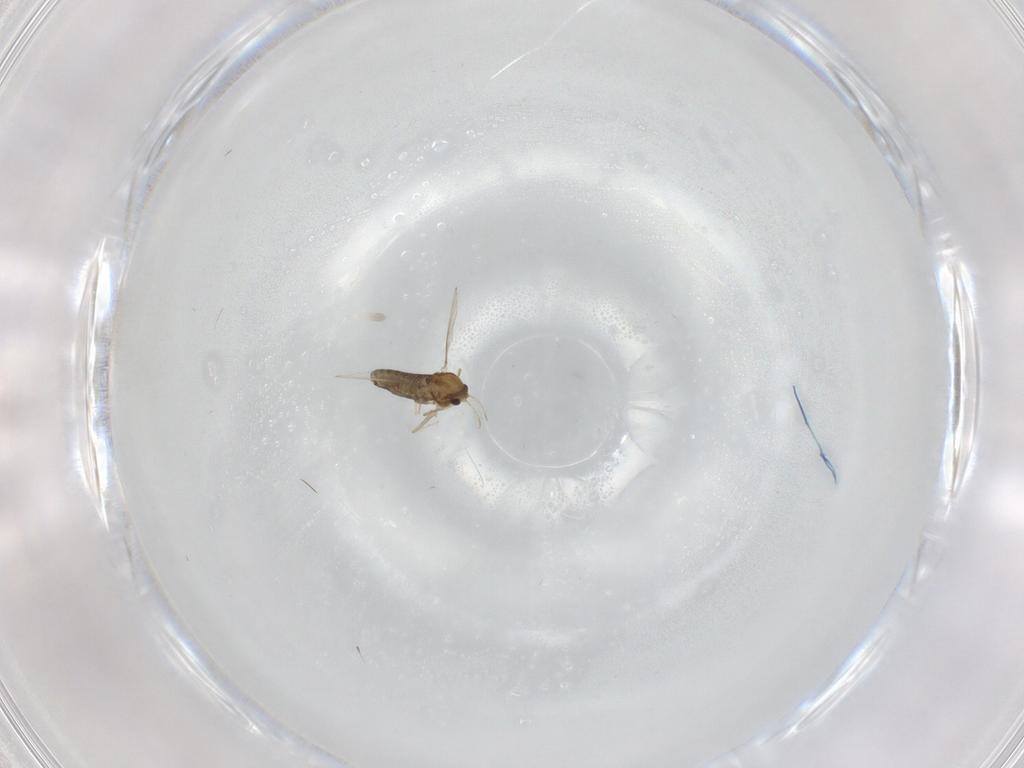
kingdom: Animalia
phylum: Arthropoda
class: Insecta
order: Diptera
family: Chironomidae
